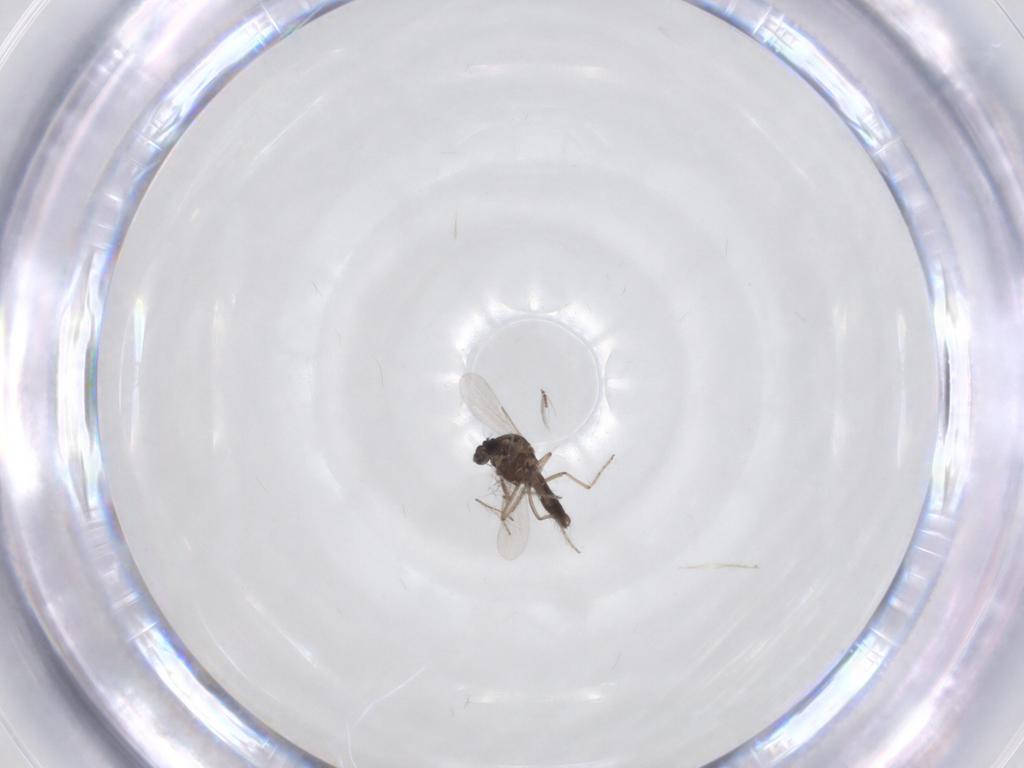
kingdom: Animalia
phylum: Arthropoda
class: Insecta
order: Diptera
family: Ceratopogonidae
